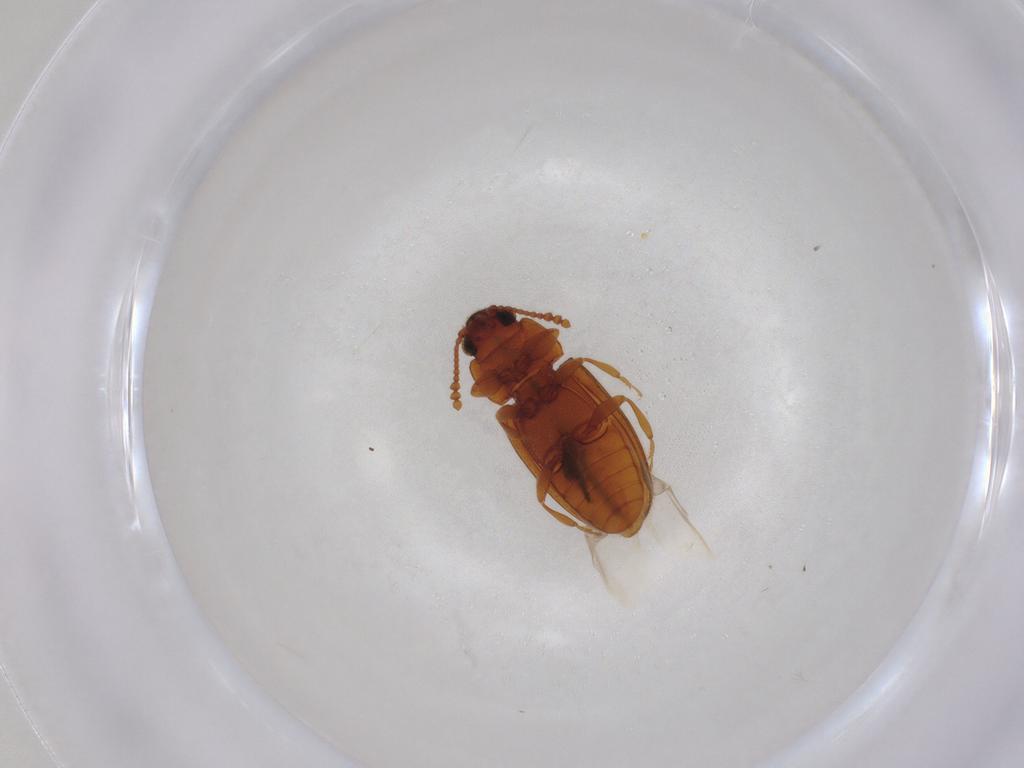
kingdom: Animalia
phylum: Arthropoda
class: Insecta
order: Coleoptera
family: Erotylidae
